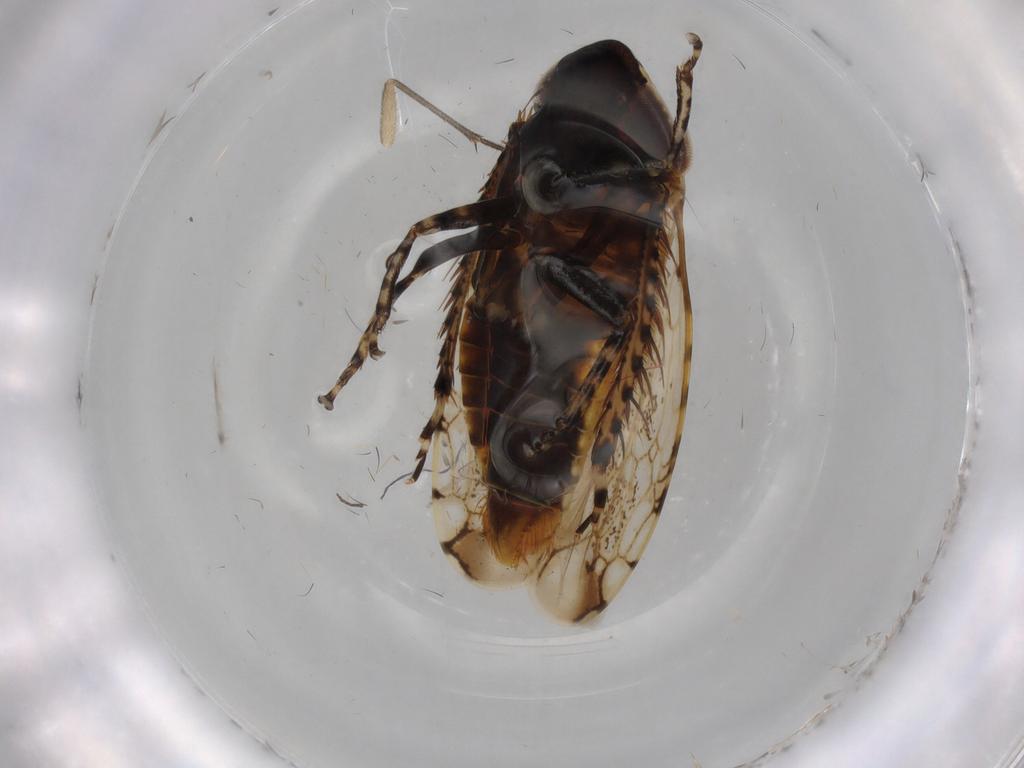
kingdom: Animalia
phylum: Arthropoda
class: Insecta
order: Hemiptera
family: Cicadellidae
